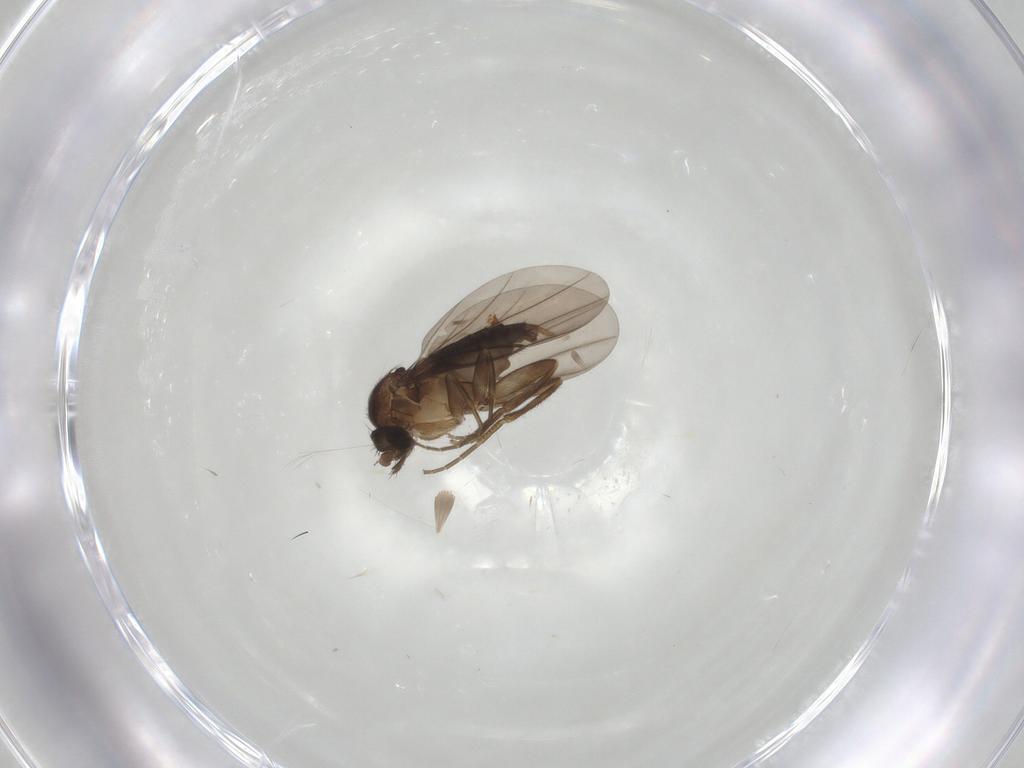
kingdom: Animalia
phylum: Arthropoda
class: Insecta
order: Diptera
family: Phoridae
